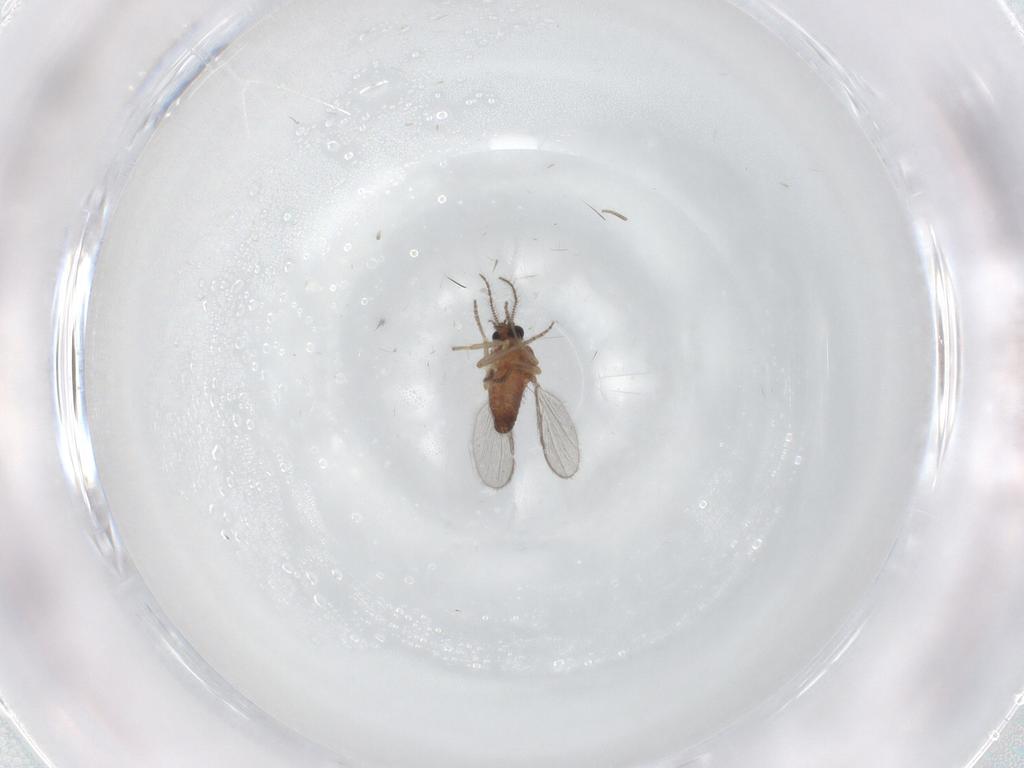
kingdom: Animalia
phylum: Arthropoda
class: Insecta
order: Diptera
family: Ceratopogonidae
